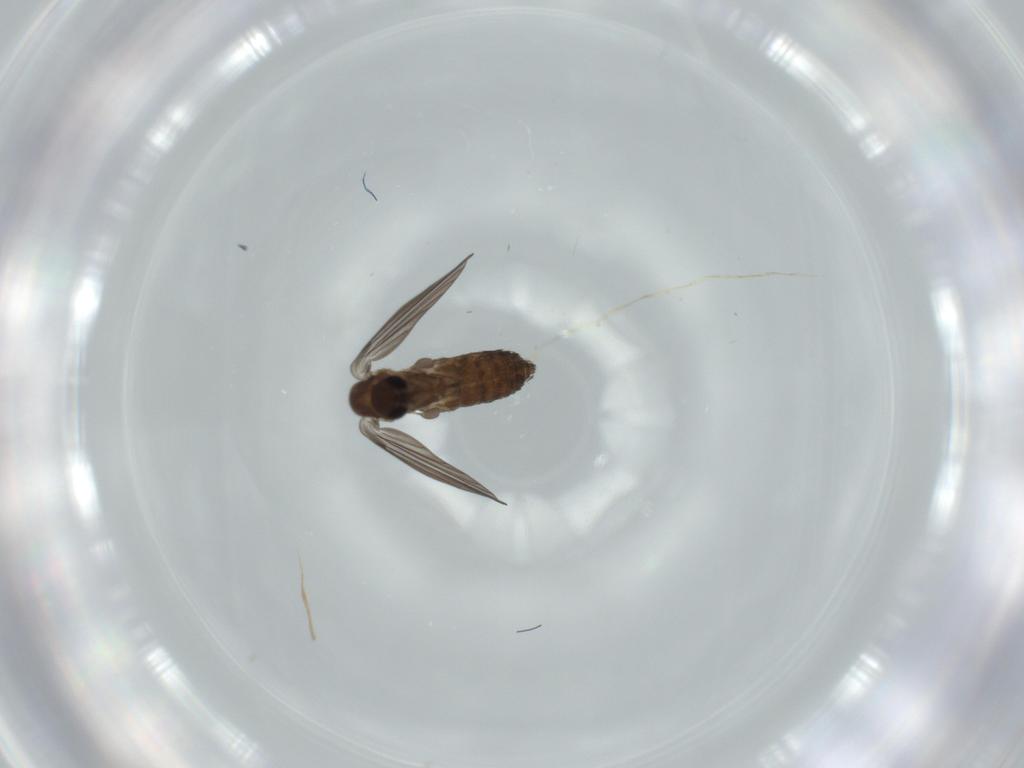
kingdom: Animalia
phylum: Arthropoda
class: Insecta
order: Diptera
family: Psychodidae
